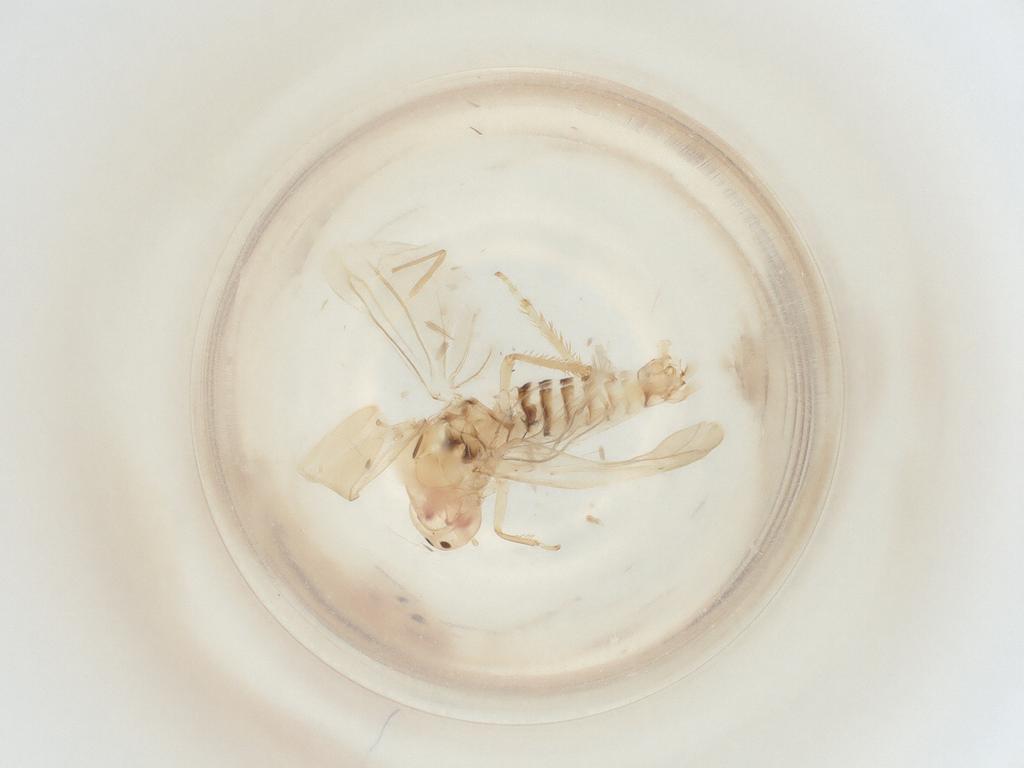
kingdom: Animalia
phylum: Arthropoda
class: Insecta
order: Hemiptera
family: Cicadellidae
